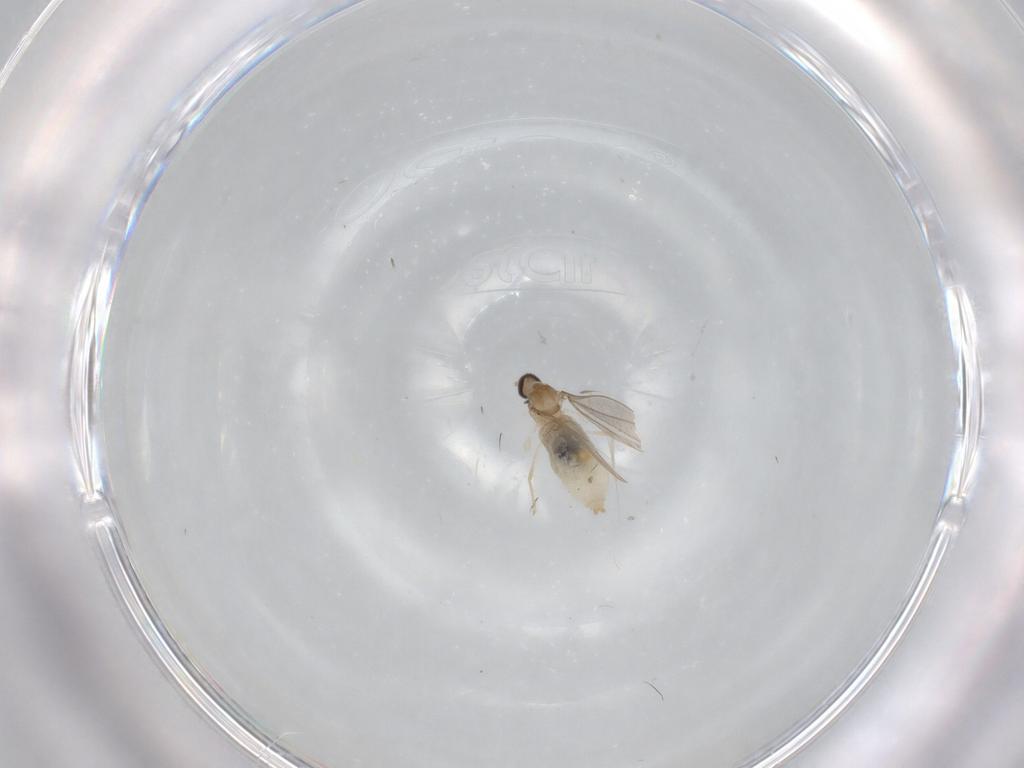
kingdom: Animalia
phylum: Arthropoda
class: Insecta
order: Diptera
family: Cecidomyiidae
